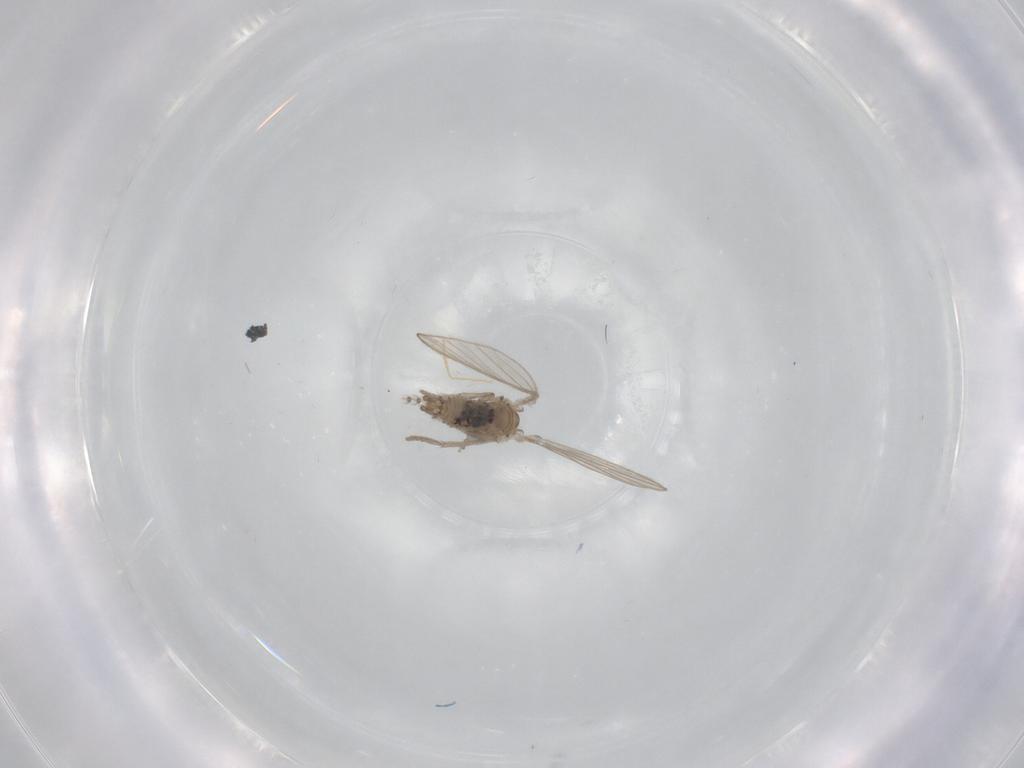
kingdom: Animalia
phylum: Arthropoda
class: Insecta
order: Diptera
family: Psychodidae
